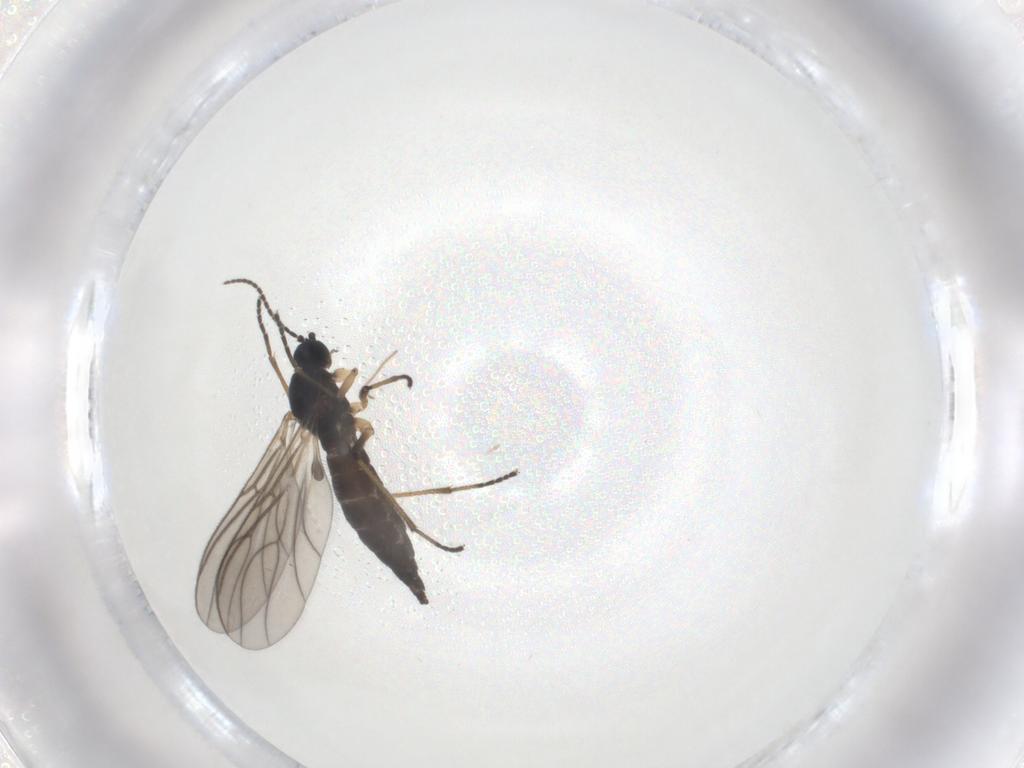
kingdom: Animalia
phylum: Arthropoda
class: Insecta
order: Diptera
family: Sciaridae
